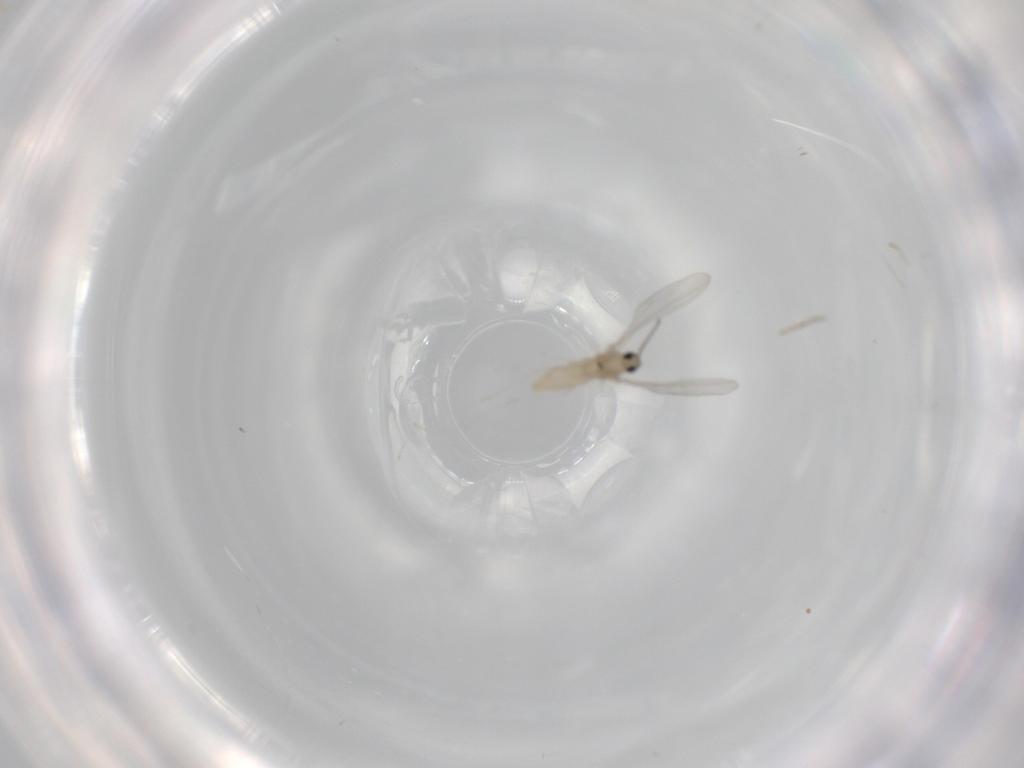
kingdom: Animalia
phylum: Arthropoda
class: Insecta
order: Diptera
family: Cecidomyiidae
